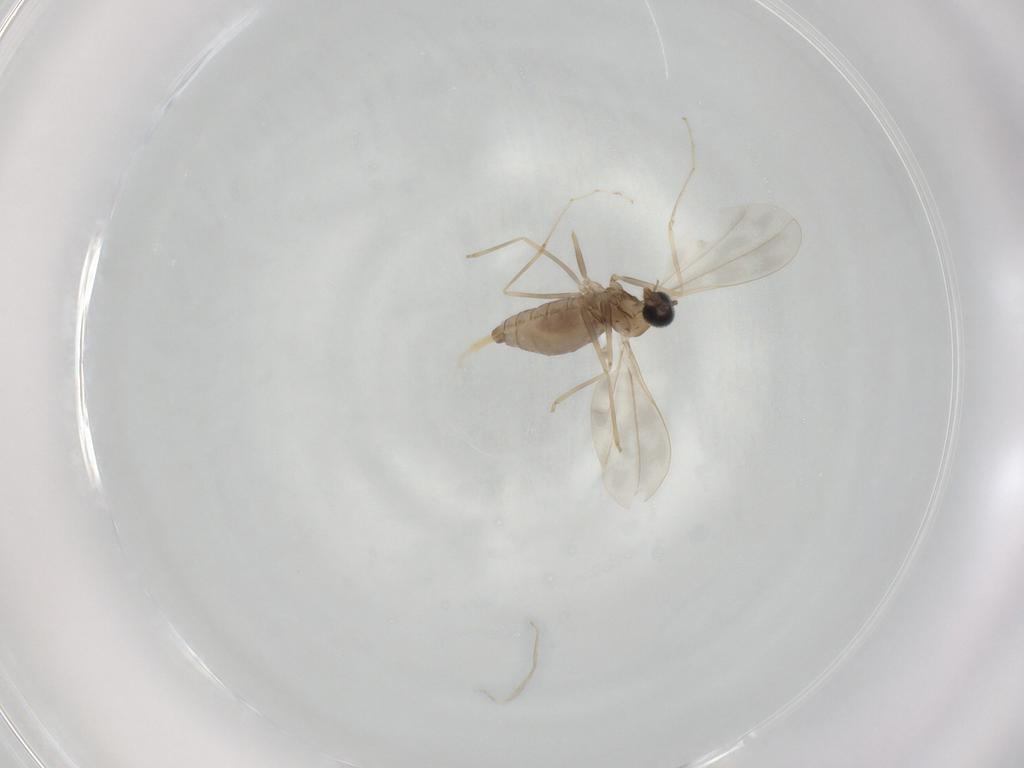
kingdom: Animalia
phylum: Arthropoda
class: Insecta
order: Diptera
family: Cecidomyiidae
